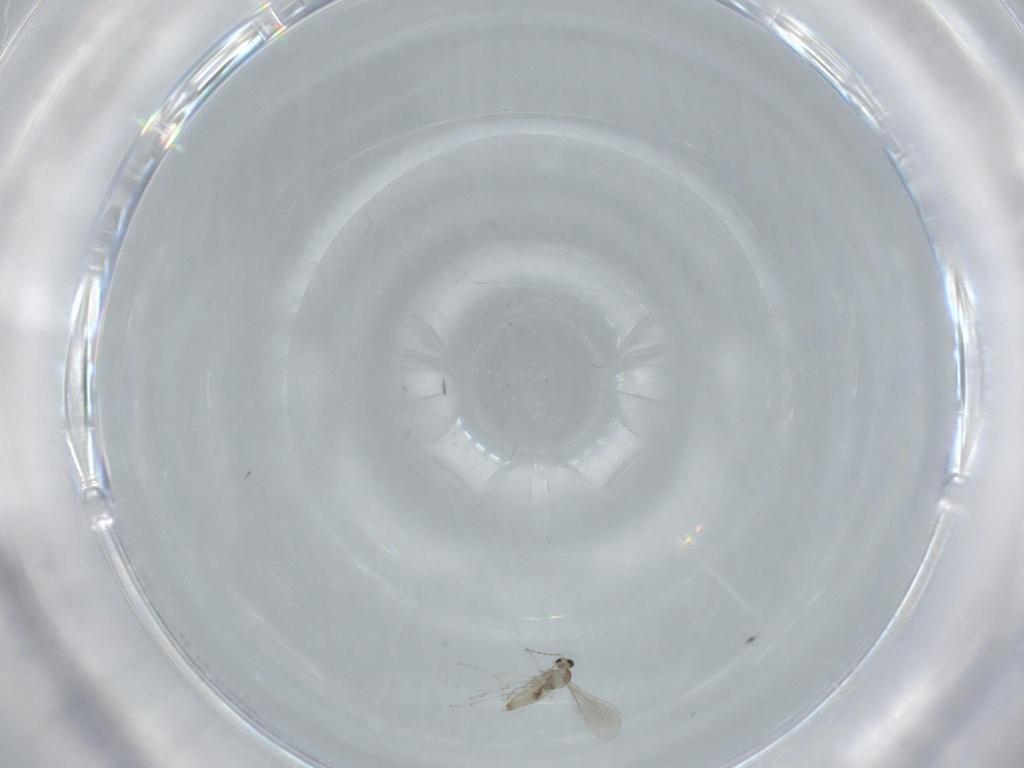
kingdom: Animalia
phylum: Arthropoda
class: Insecta
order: Diptera
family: Cecidomyiidae
